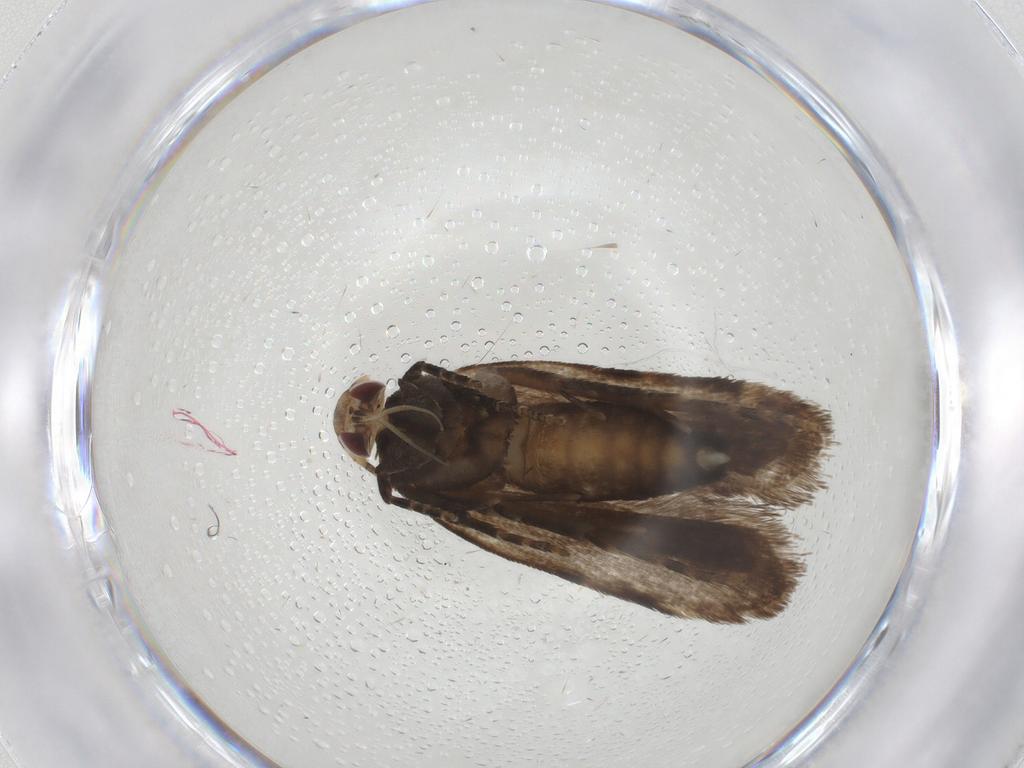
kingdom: Animalia
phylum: Arthropoda
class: Insecta
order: Lepidoptera
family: Gelechiidae
